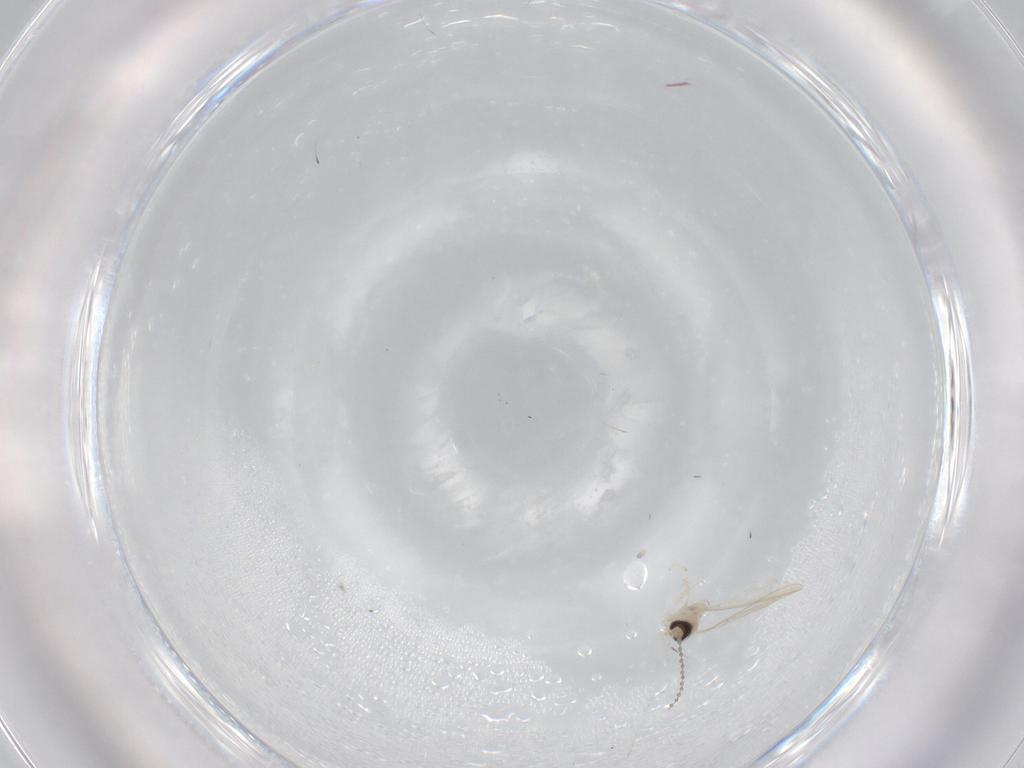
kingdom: Animalia
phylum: Arthropoda
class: Insecta
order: Diptera
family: Cecidomyiidae
